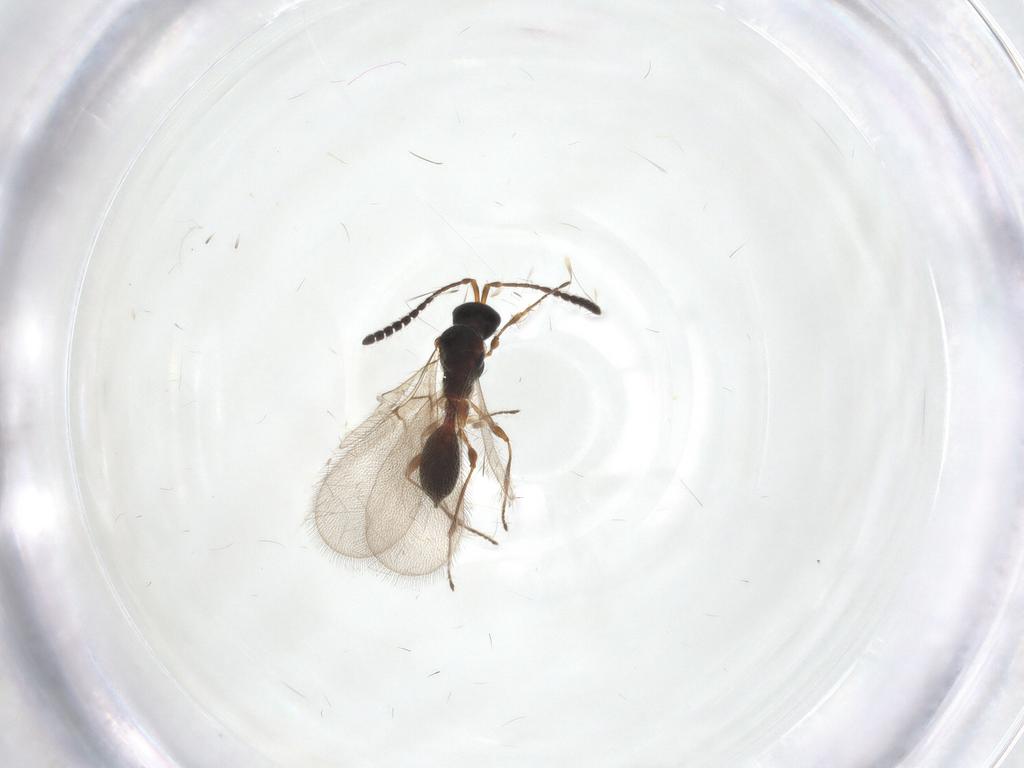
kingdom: Animalia
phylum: Arthropoda
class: Insecta
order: Hymenoptera
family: Diapriidae
